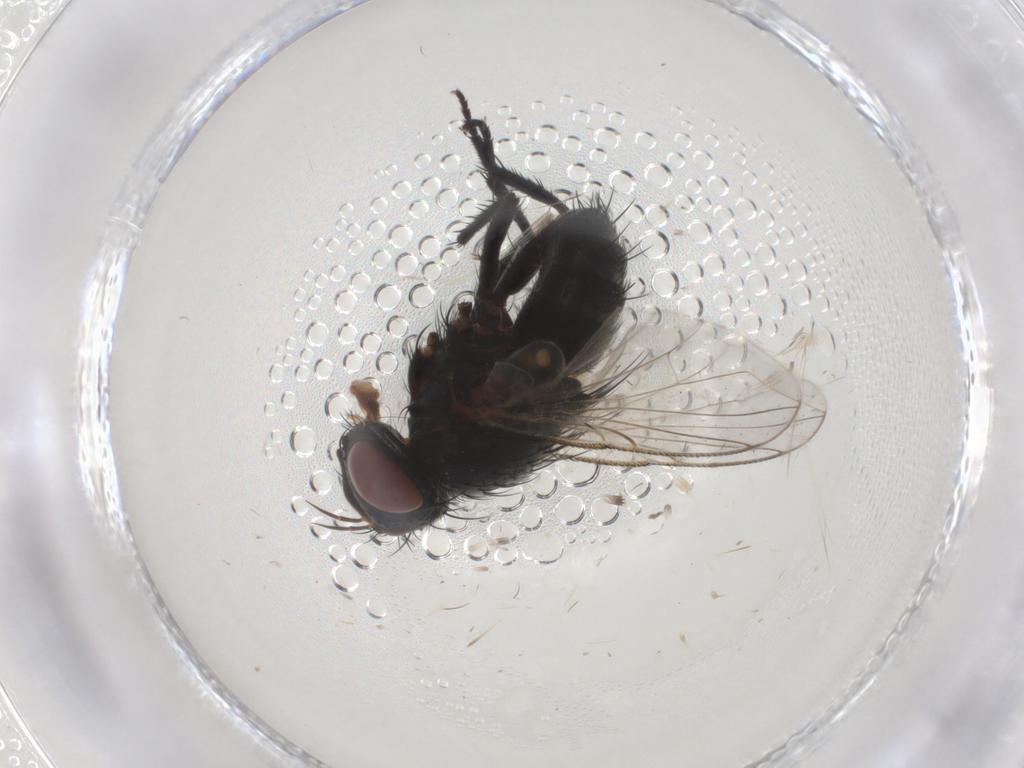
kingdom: Animalia
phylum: Arthropoda
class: Insecta
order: Diptera
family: Tachinidae
